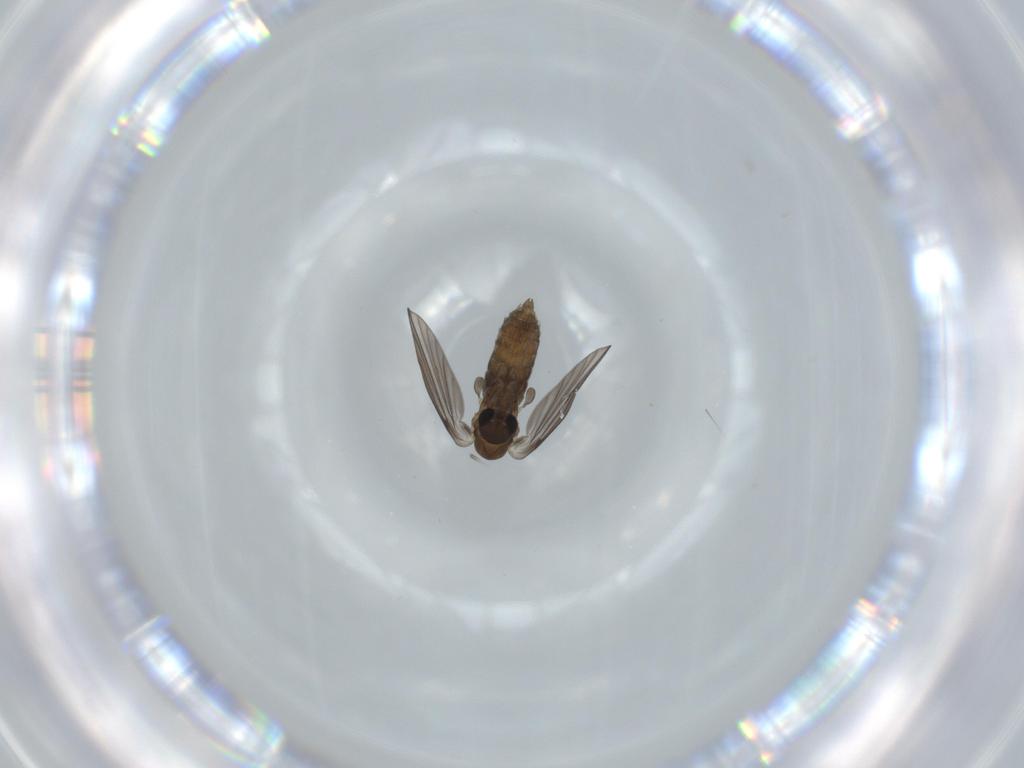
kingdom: Animalia
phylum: Arthropoda
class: Insecta
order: Diptera
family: Psychodidae
